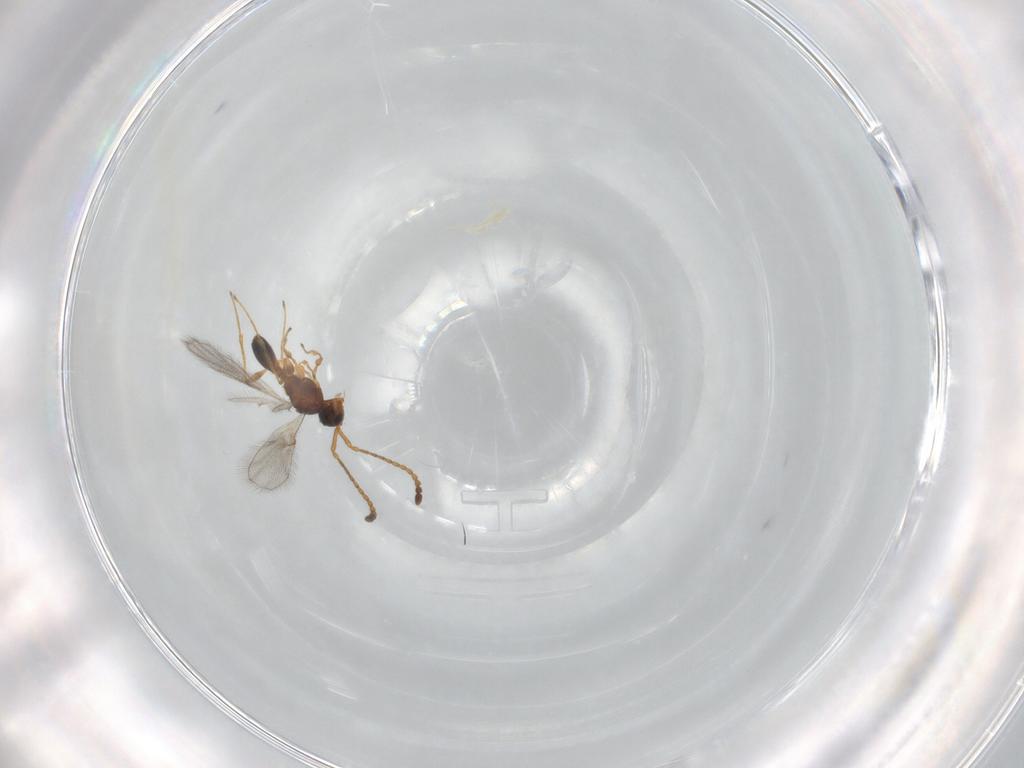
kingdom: Animalia
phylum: Arthropoda
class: Insecta
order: Hymenoptera
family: Diapriidae
